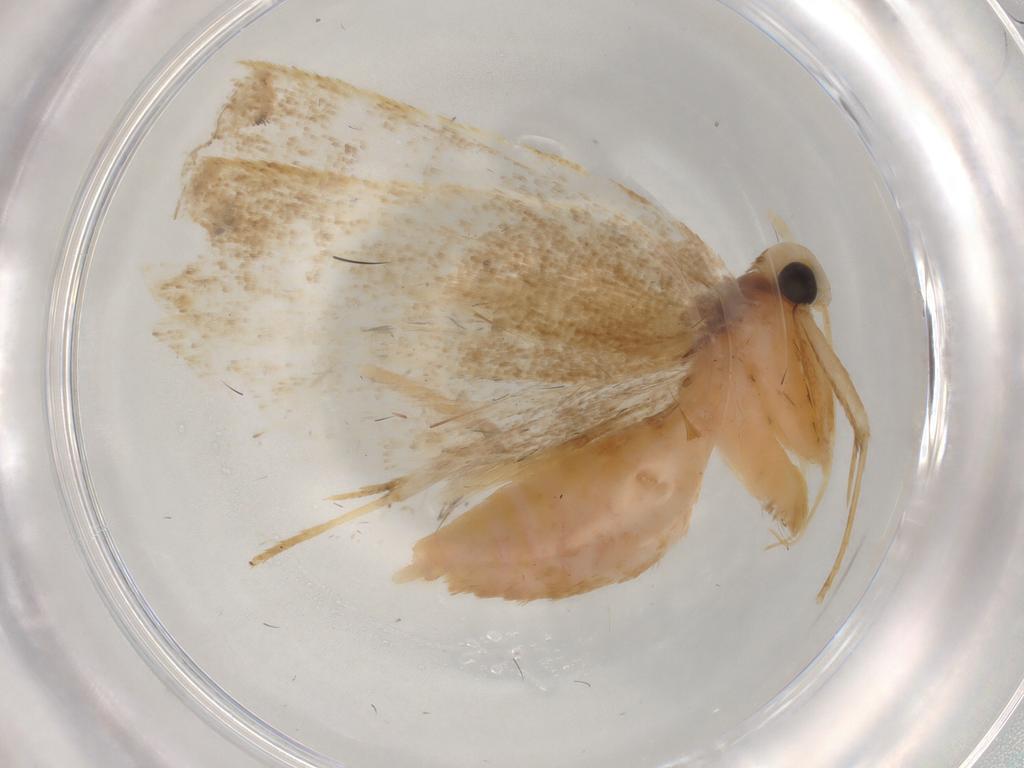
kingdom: Animalia
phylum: Arthropoda
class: Insecta
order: Lepidoptera
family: Lecithoceridae
